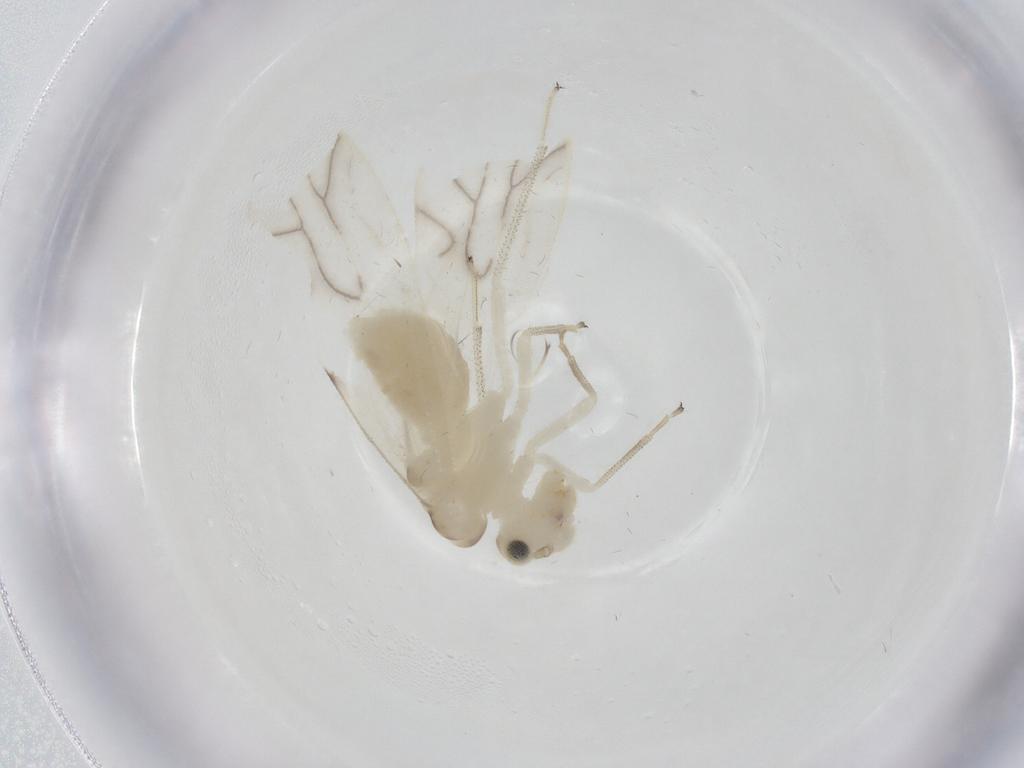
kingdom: Animalia
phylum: Arthropoda
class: Insecta
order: Psocodea
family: Caeciliusidae
